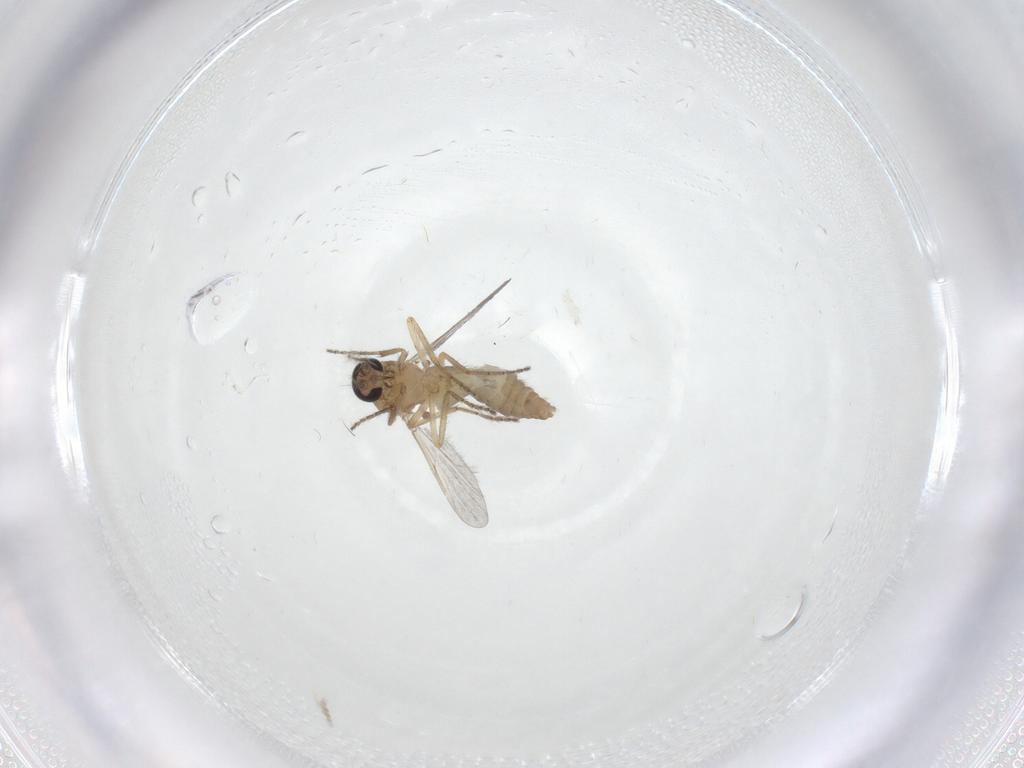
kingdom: Animalia
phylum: Arthropoda
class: Insecta
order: Diptera
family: Ceratopogonidae
